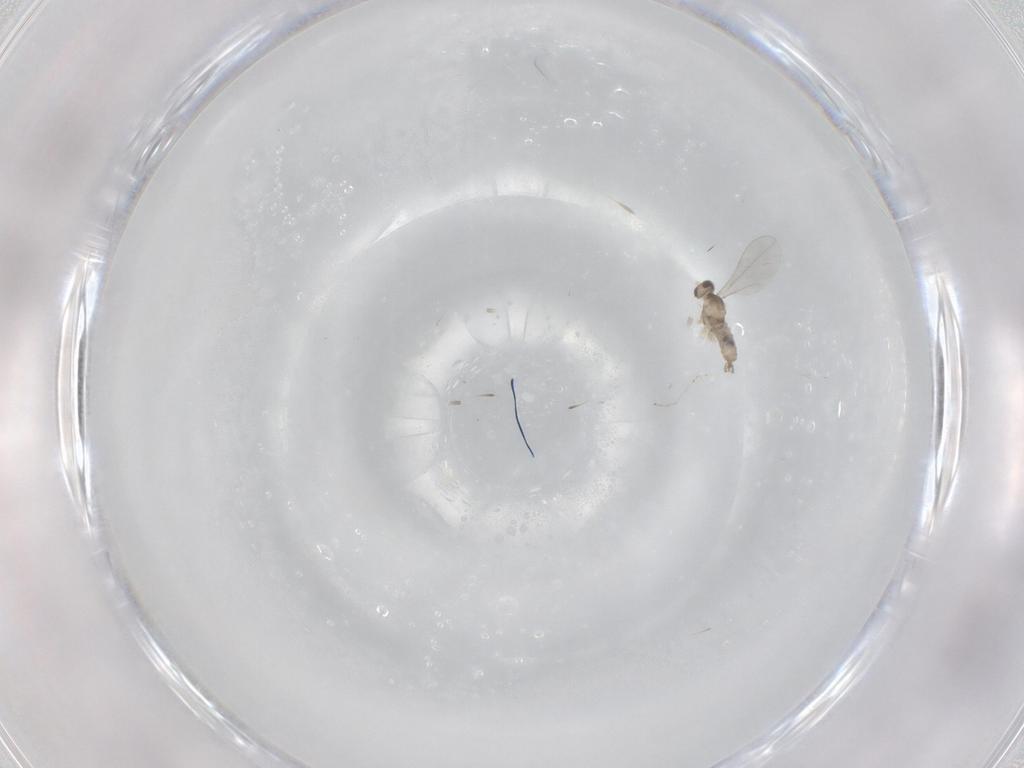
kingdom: Animalia
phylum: Arthropoda
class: Insecta
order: Diptera
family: Cecidomyiidae
